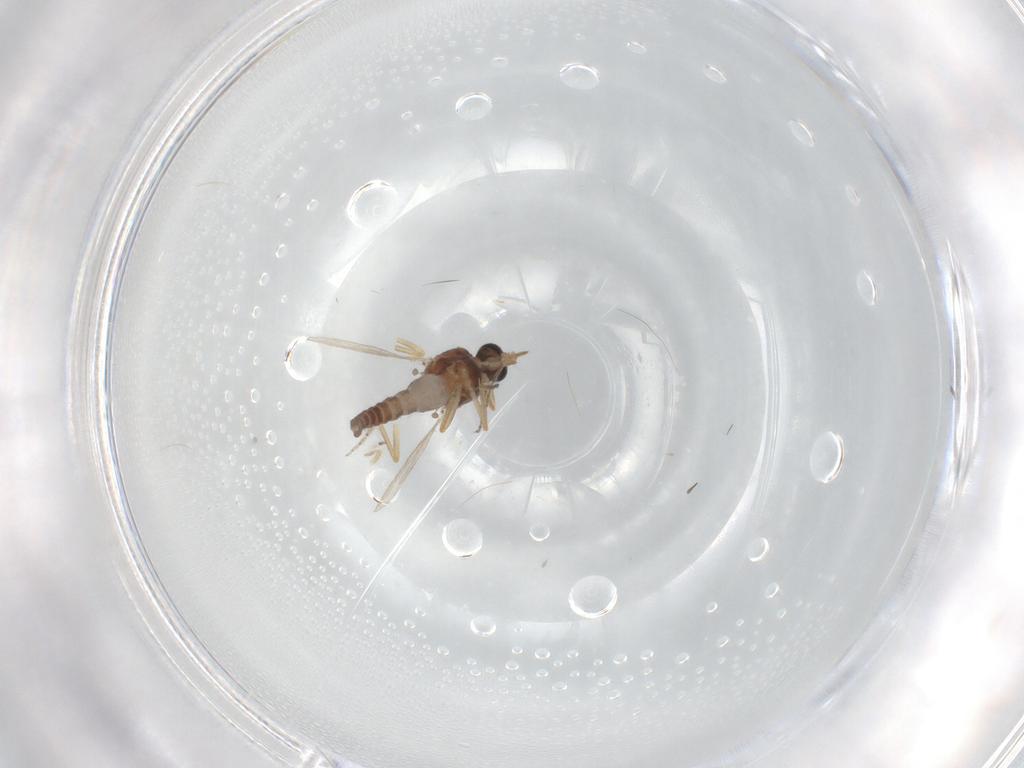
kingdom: Animalia
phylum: Arthropoda
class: Insecta
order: Diptera
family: Ceratopogonidae
